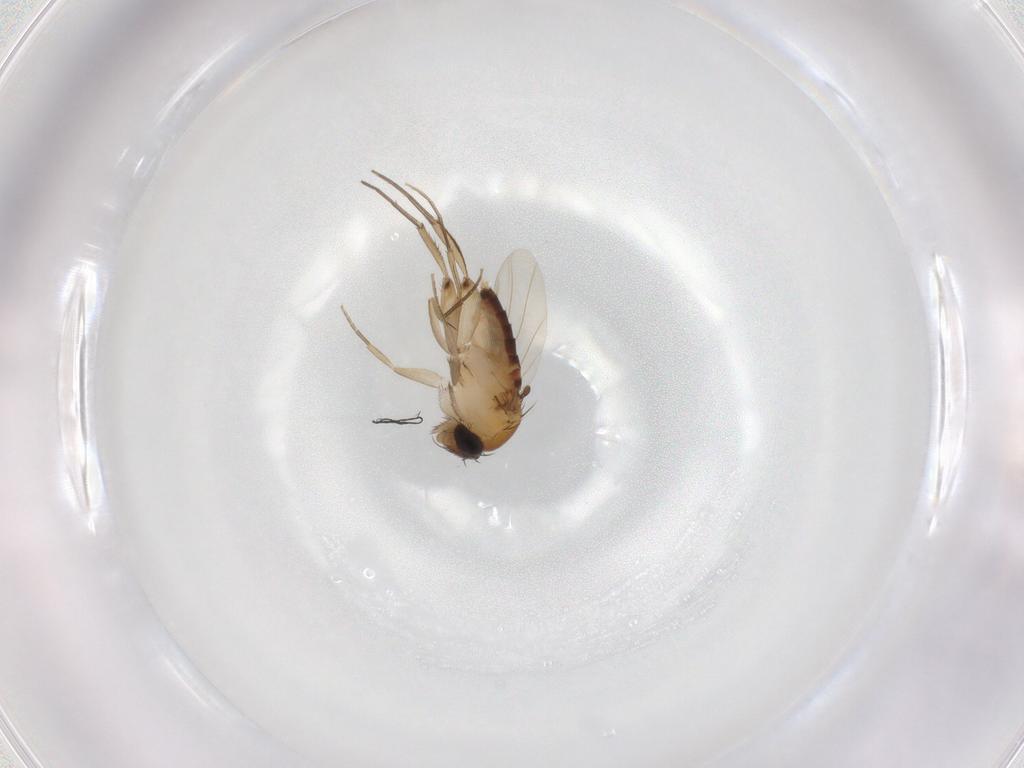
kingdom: Animalia
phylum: Arthropoda
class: Insecta
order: Diptera
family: Phoridae
